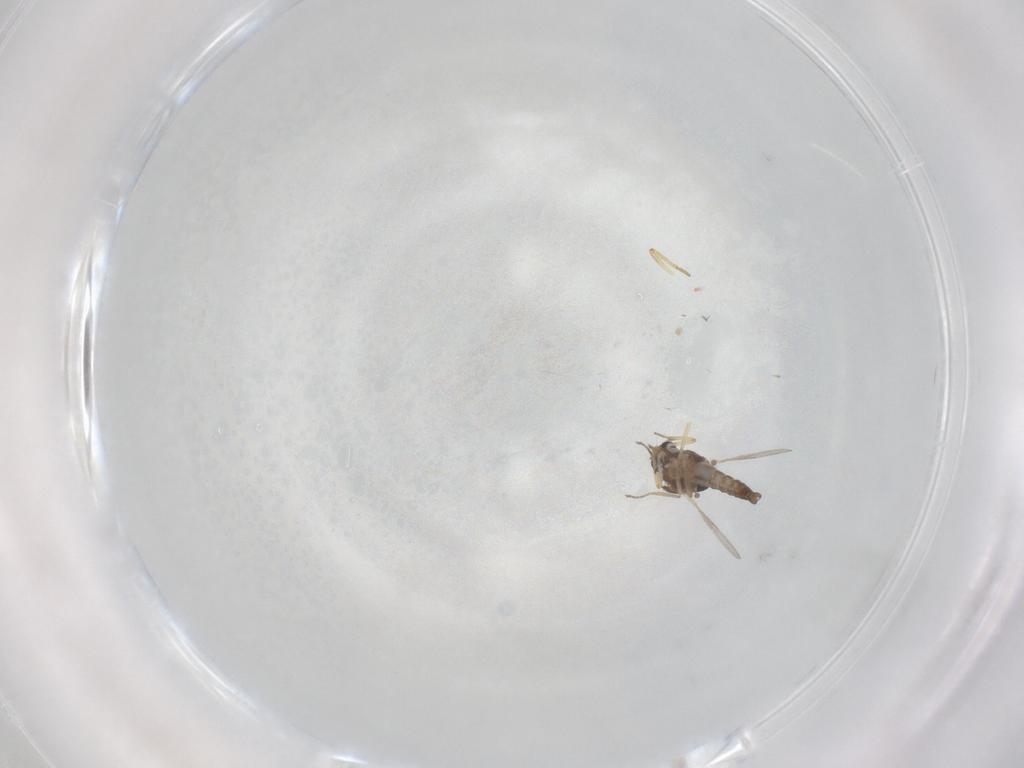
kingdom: Animalia
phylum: Arthropoda
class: Insecta
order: Diptera
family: Ceratopogonidae
